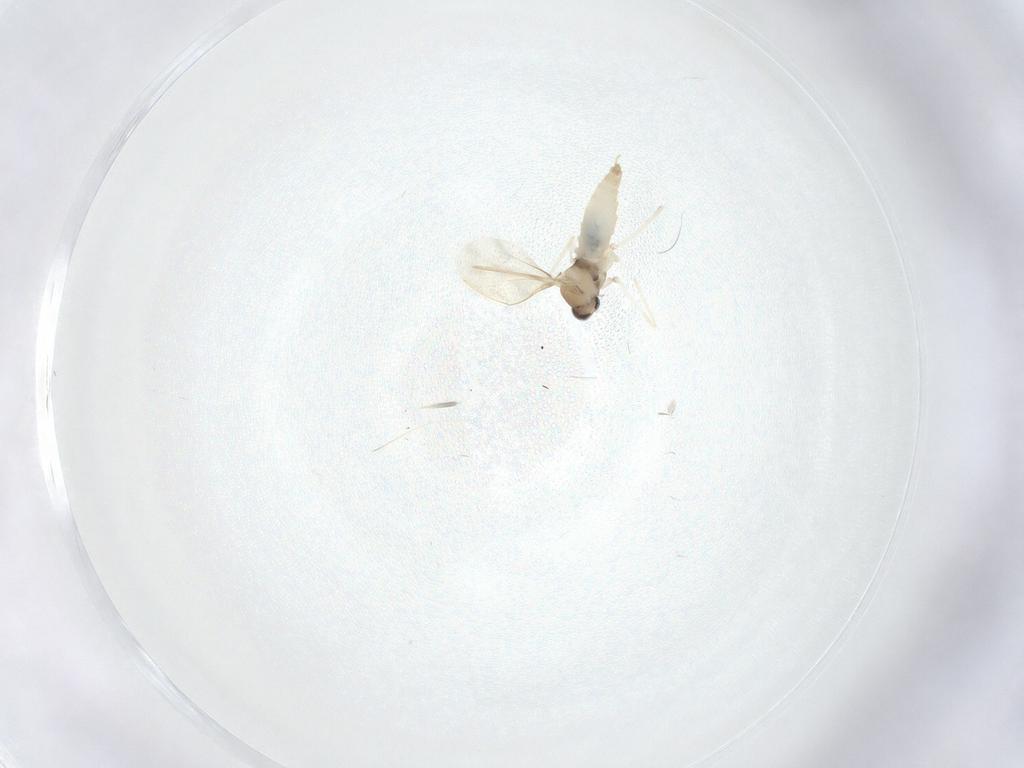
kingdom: Animalia
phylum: Arthropoda
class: Insecta
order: Diptera
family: Cecidomyiidae
